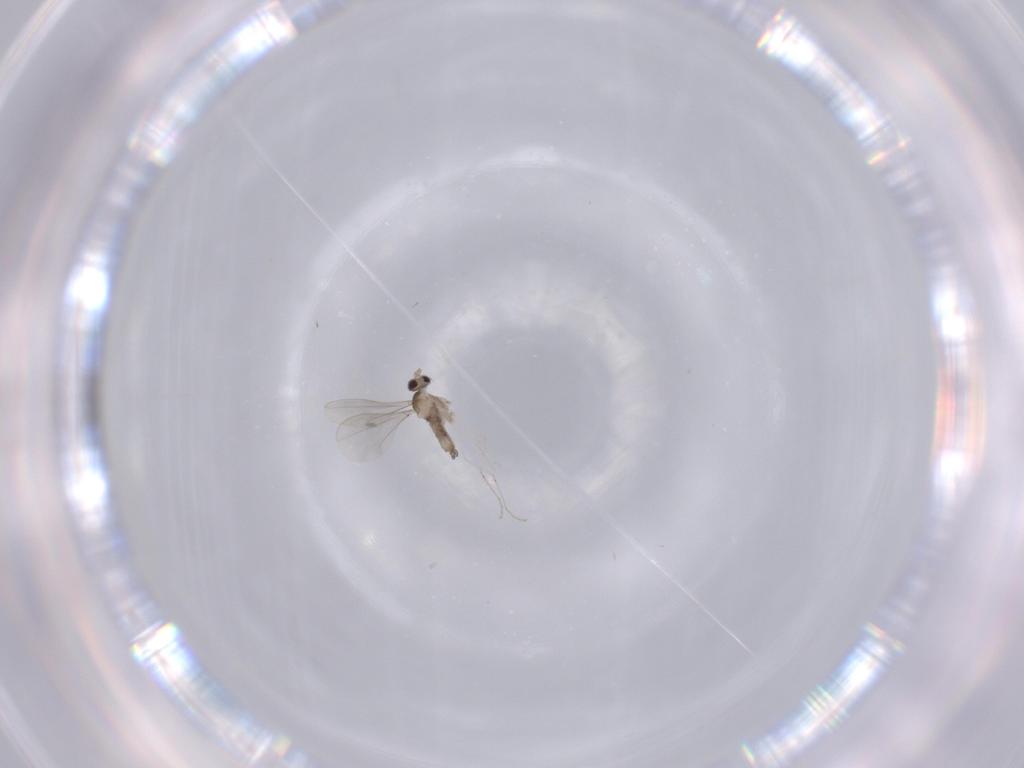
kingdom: Animalia
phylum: Arthropoda
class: Insecta
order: Diptera
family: Ceratopogonidae
